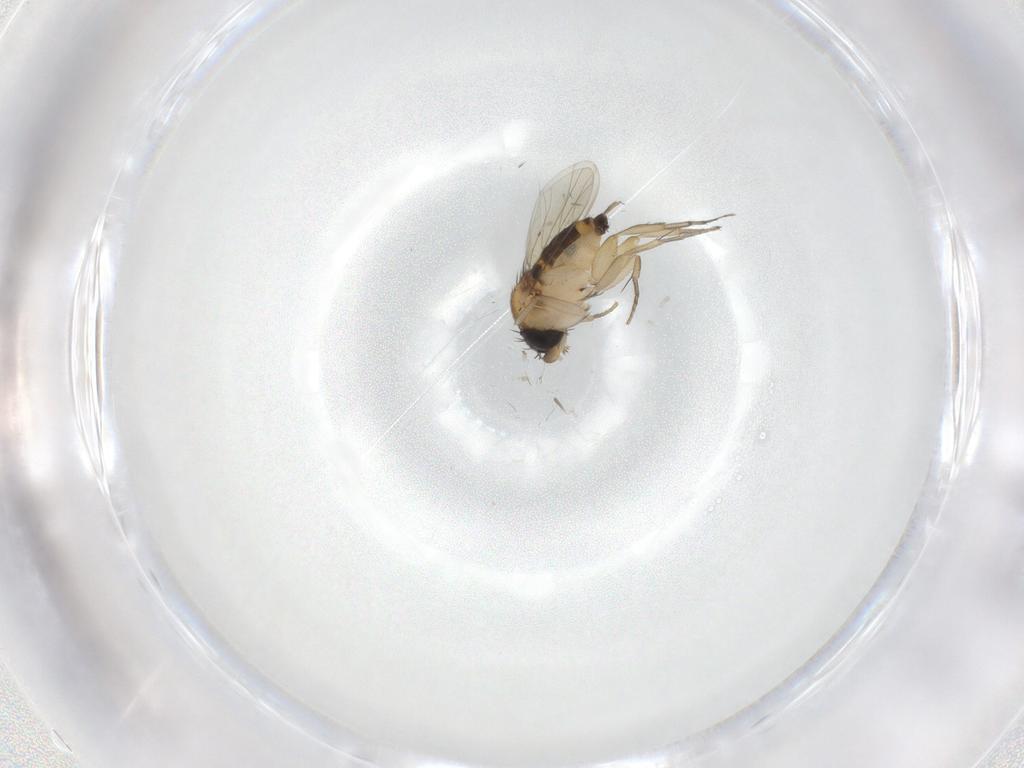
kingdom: Animalia
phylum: Arthropoda
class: Insecta
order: Diptera
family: Phoridae
